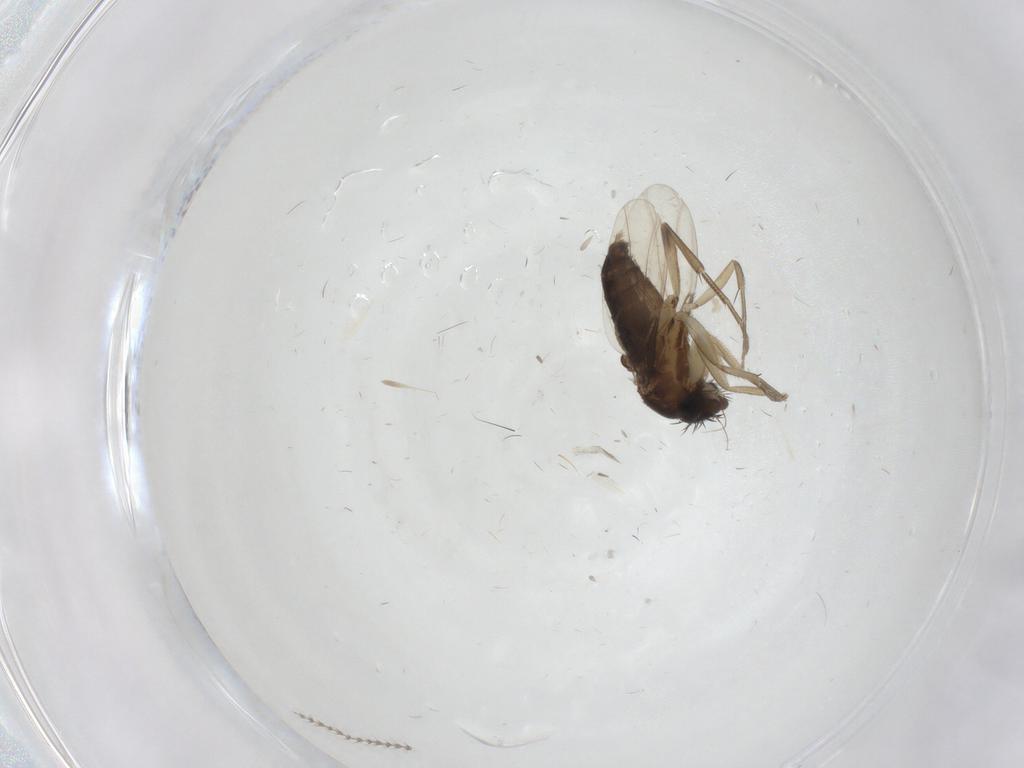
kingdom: Animalia
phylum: Arthropoda
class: Insecta
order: Diptera
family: Phoridae
